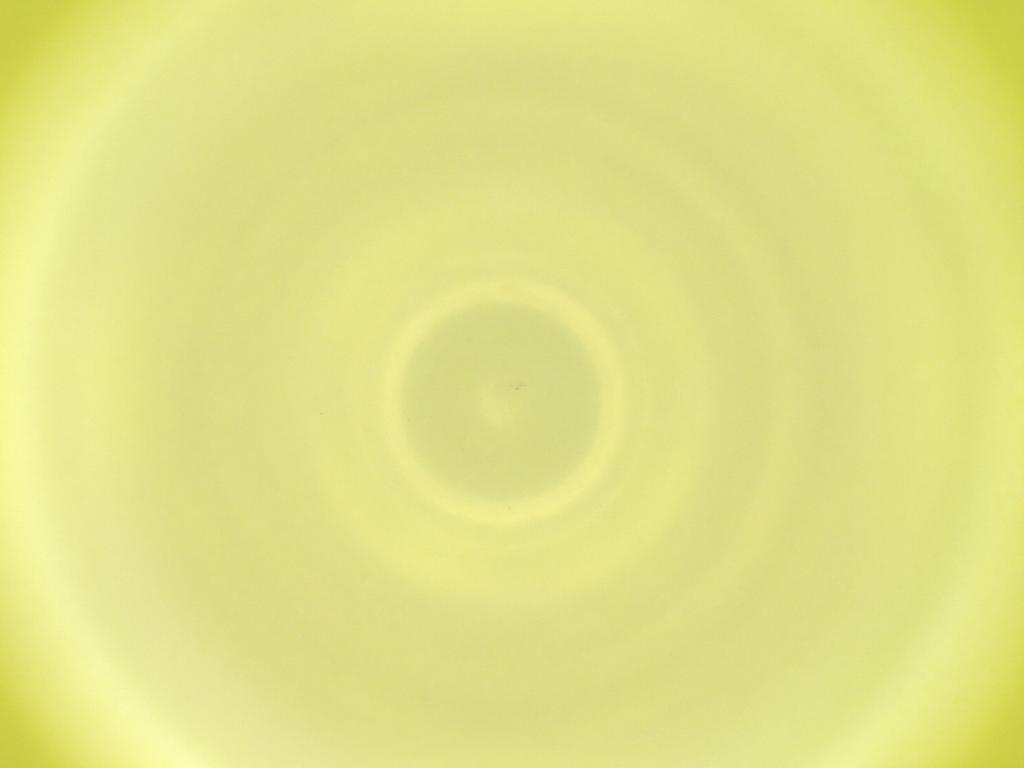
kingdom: Animalia
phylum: Arthropoda
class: Insecta
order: Diptera
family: Cecidomyiidae
